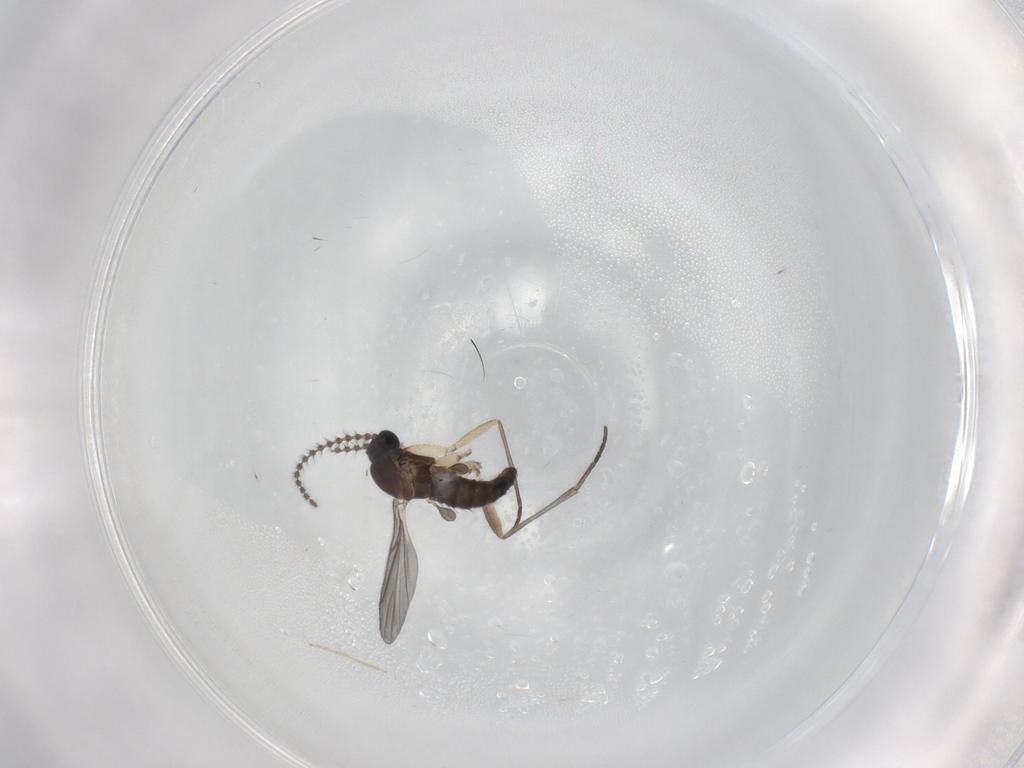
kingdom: Animalia
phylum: Arthropoda
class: Insecta
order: Diptera
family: Sciaridae
